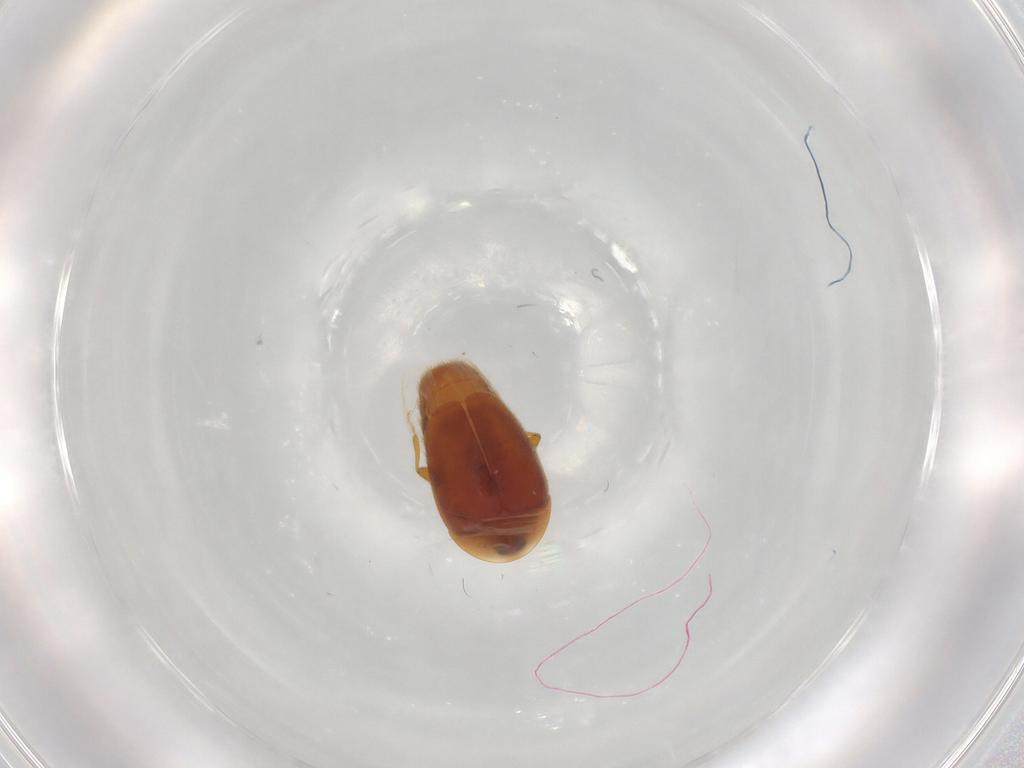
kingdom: Animalia
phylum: Arthropoda
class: Insecta
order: Coleoptera
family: Corylophidae
